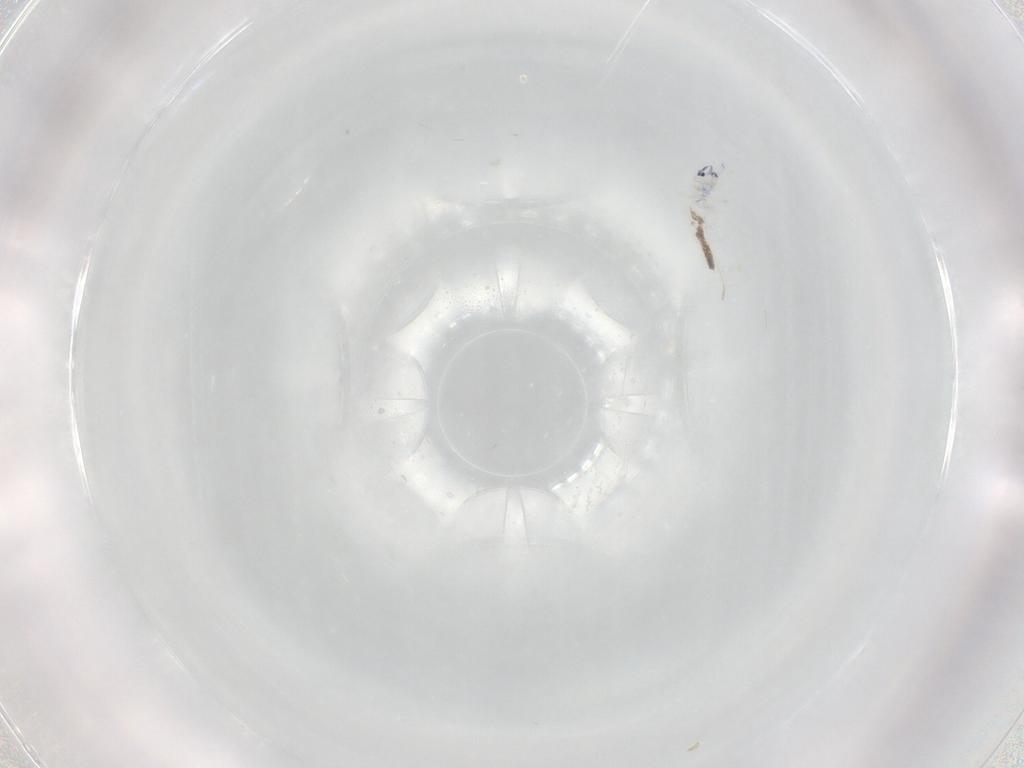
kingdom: Animalia
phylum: Arthropoda
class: Collembola
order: Entomobryomorpha
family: Entomobryidae
